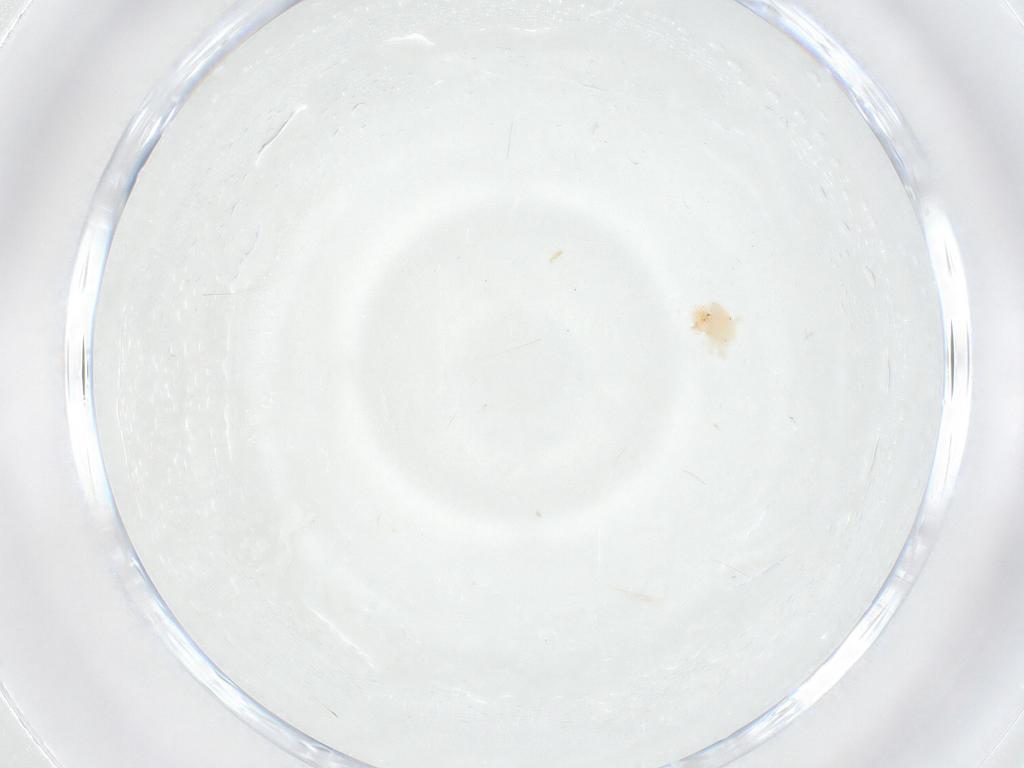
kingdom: Animalia
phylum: Arthropoda
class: Arachnida
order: Trombidiformes
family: Anystidae
